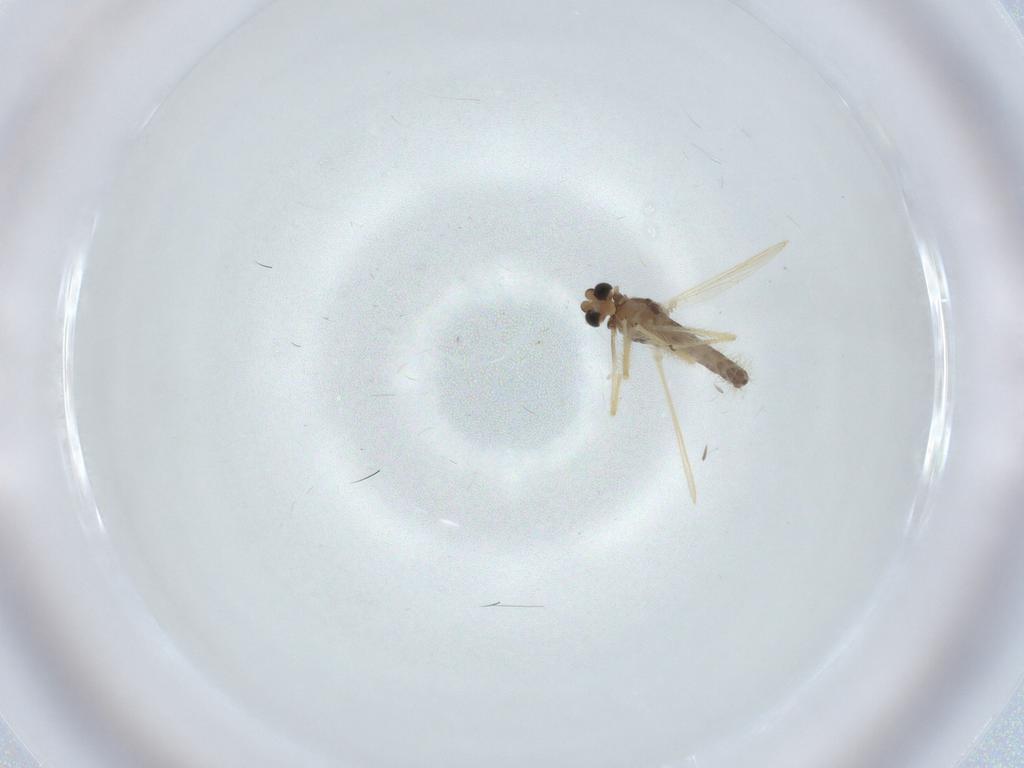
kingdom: Animalia
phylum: Arthropoda
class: Insecta
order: Diptera
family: Chironomidae
